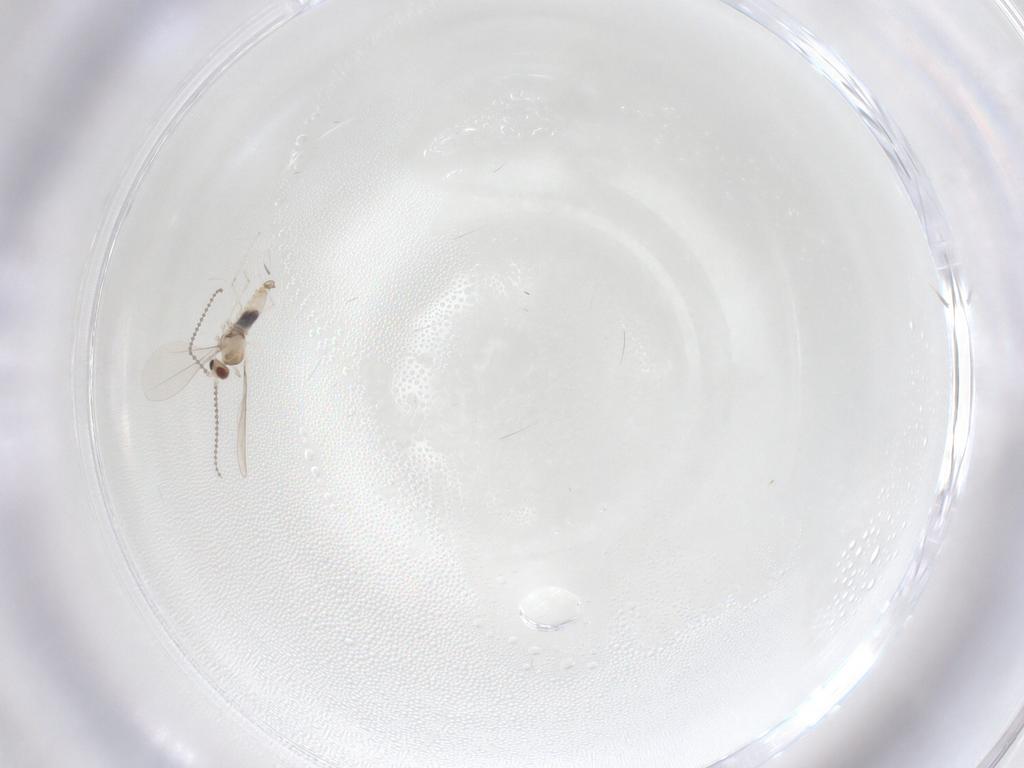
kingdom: Animalia
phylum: Arthropoda
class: Insecta
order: Diptera
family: Cecidomyiidae
